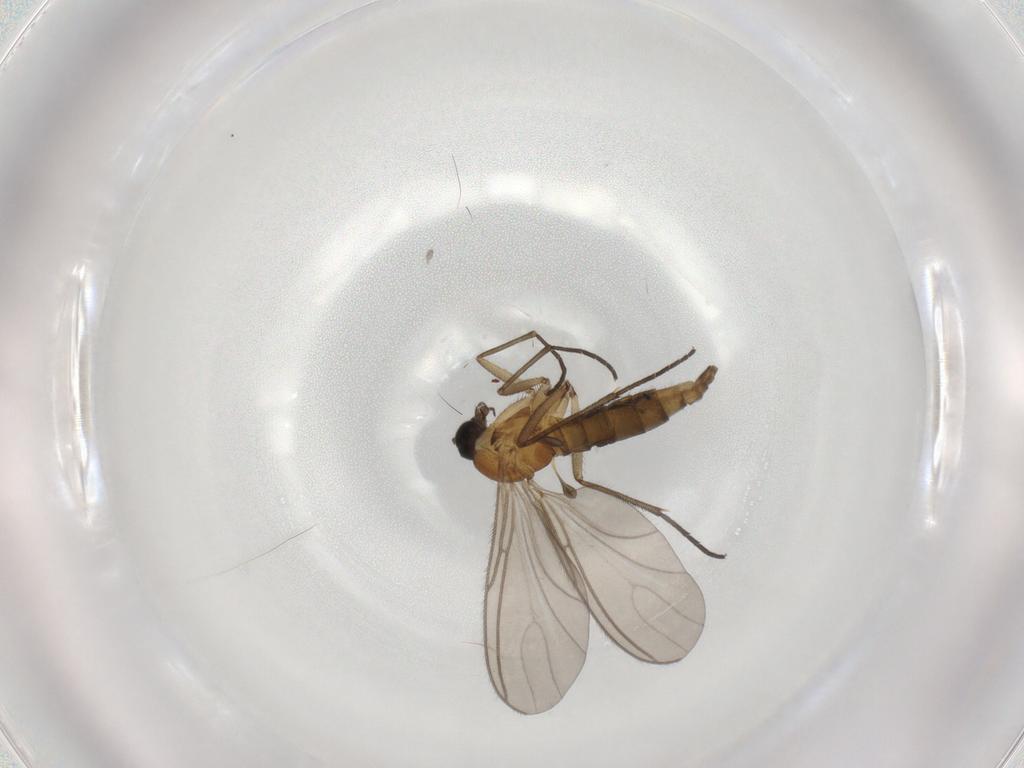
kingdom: Animalia
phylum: Arthropoda
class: Insecta
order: Diptera
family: Sciaridae
